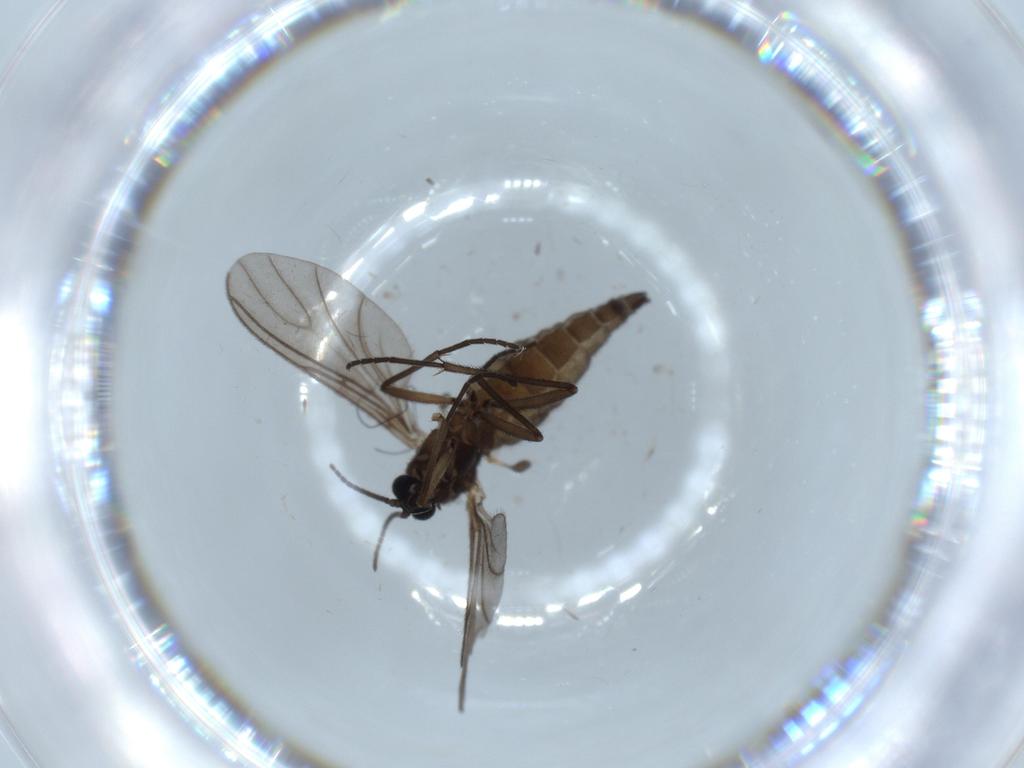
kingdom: Animalia
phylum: Arthropoda
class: Insecta
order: Diptera
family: Sciaridae
